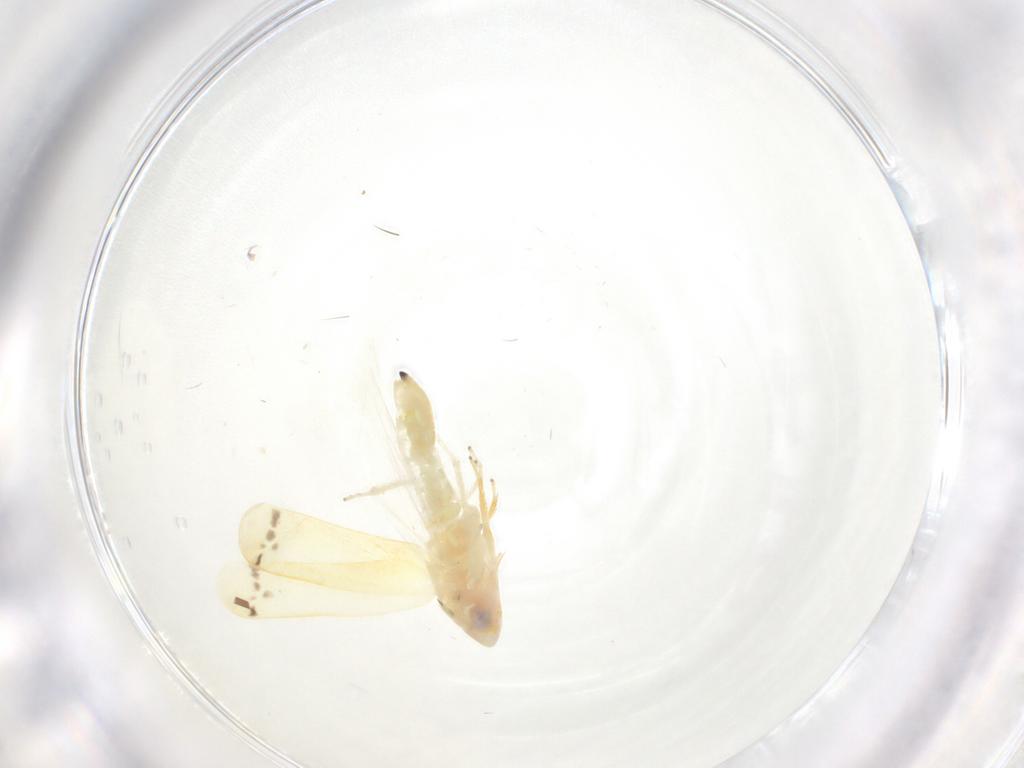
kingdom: Animalia
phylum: Arthropoda
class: Insecta
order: Hemiptera
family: Cicadellidae
